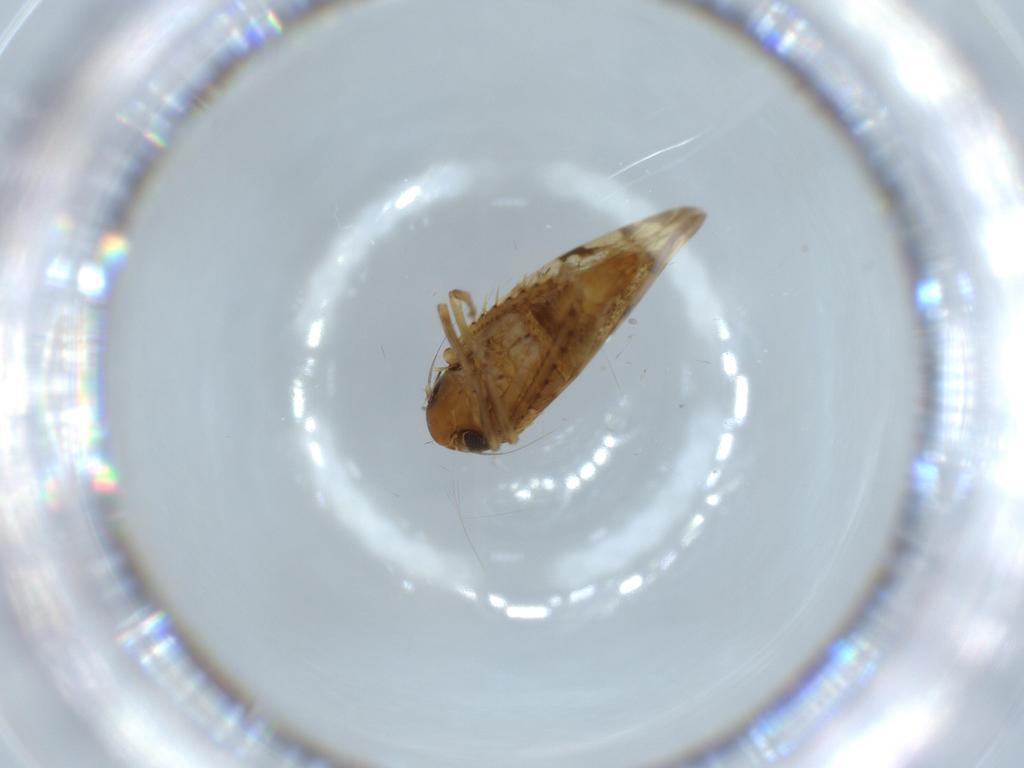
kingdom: Animalia
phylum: Arthropoda
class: Insecta
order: Hemiptera
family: Cicadellidae
